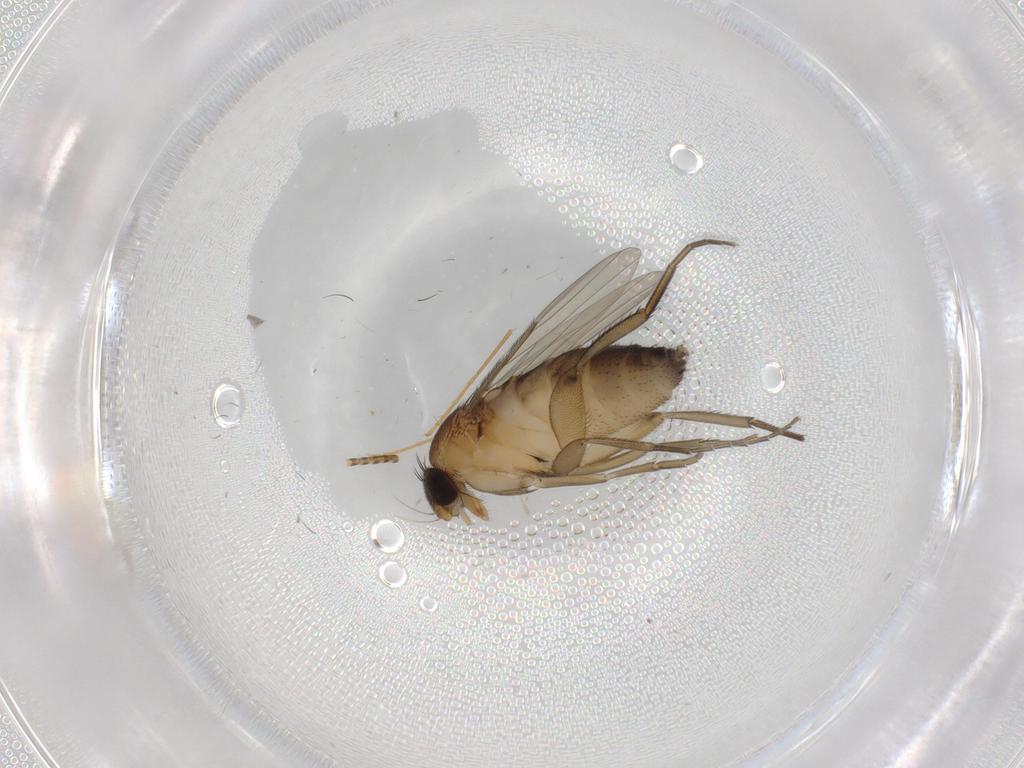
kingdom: Animalia
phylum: Arthropoda
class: Insecta
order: Diptera
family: Phoridae
